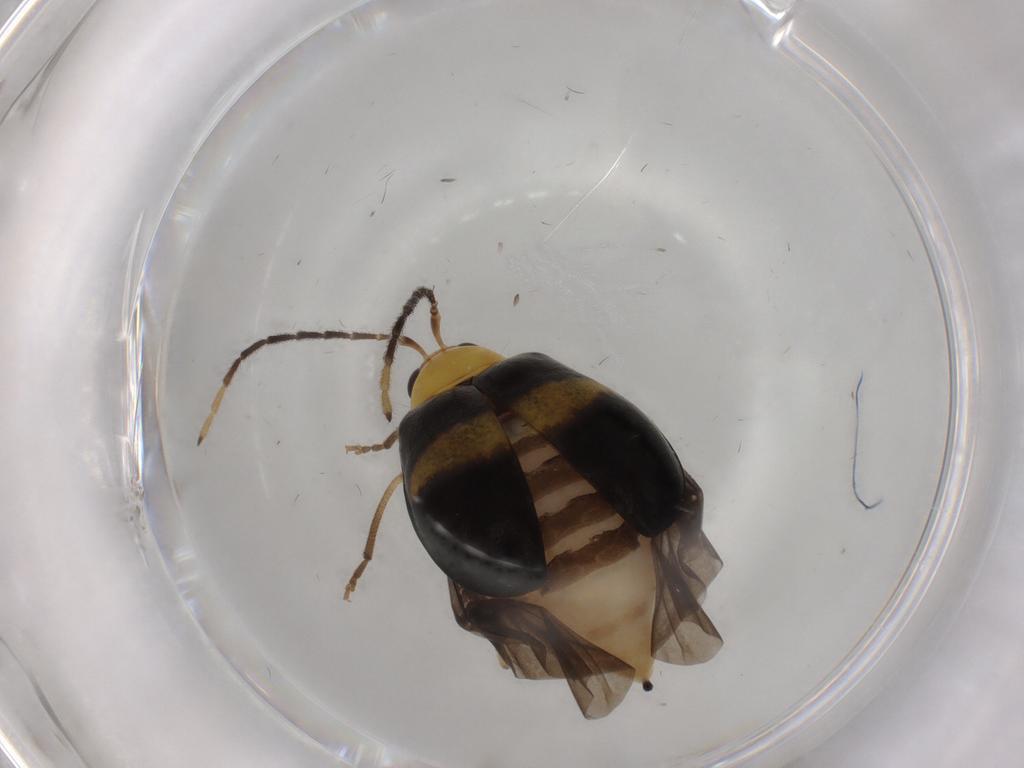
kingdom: Animalia
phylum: Arthropoda
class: Insecta
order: Coleoptera
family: Chrysomelidae
